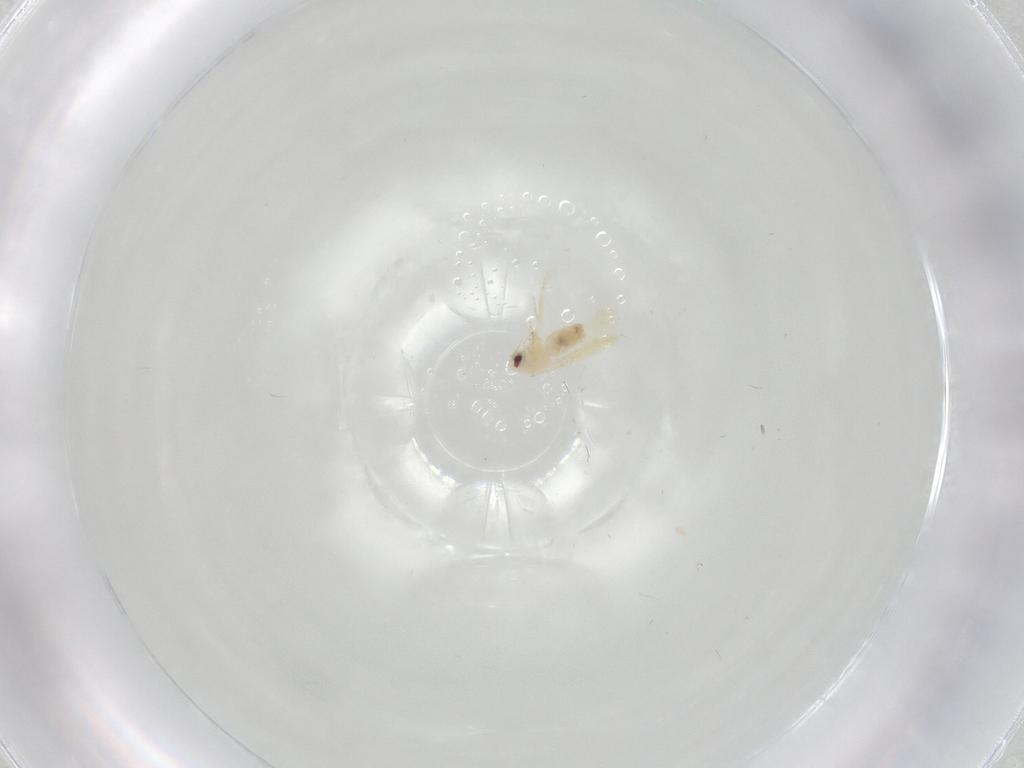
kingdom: Animalia
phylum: Arthropoda
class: Insecta
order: Hemiptera
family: Aleyrodidae
